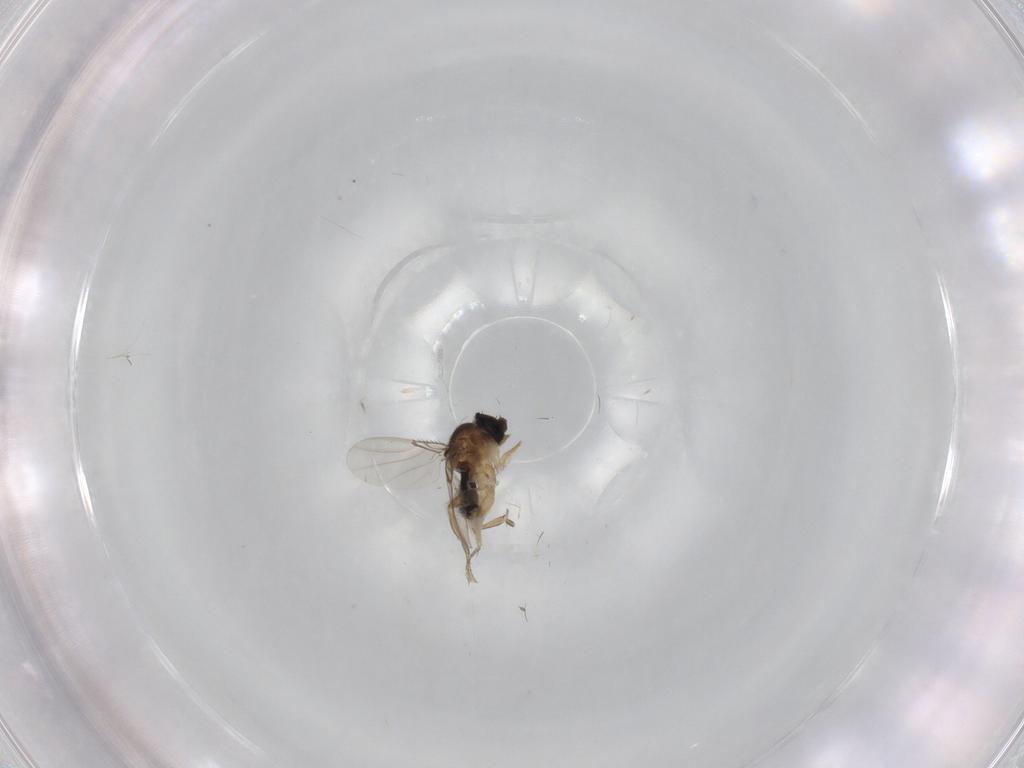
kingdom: Animalia
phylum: Arthropoda
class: Insecta
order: Diptera
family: Phoridae
